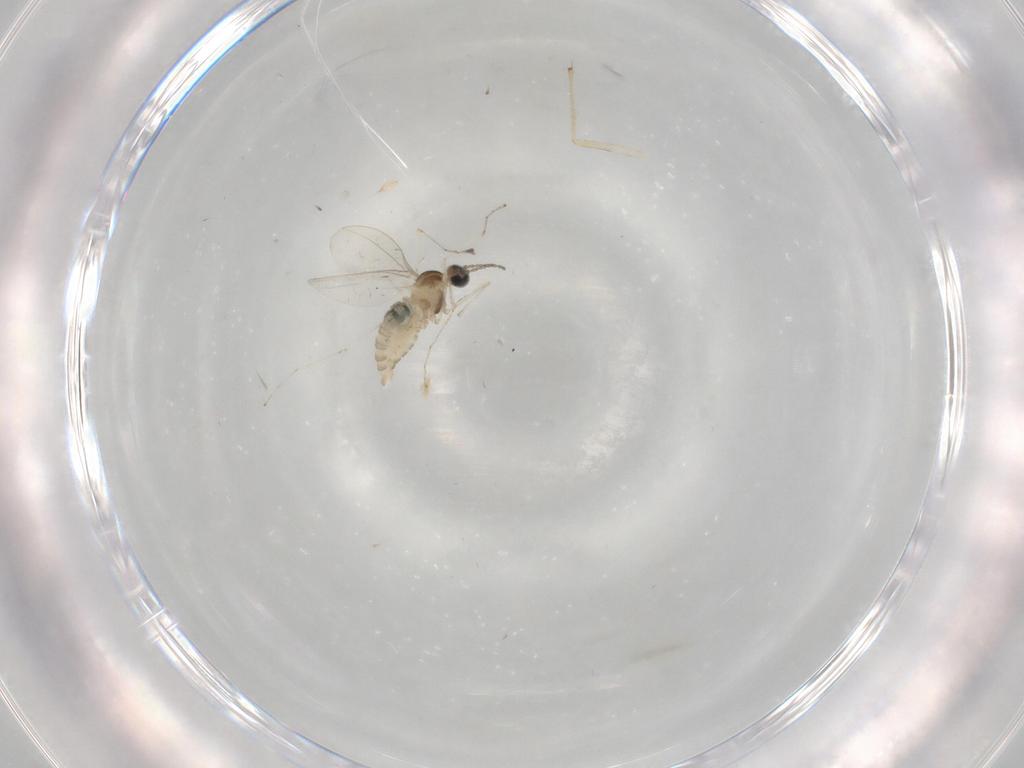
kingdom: Animalia
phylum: Arthropoda
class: Insecta
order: Diptera
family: Cecidomyiidae
